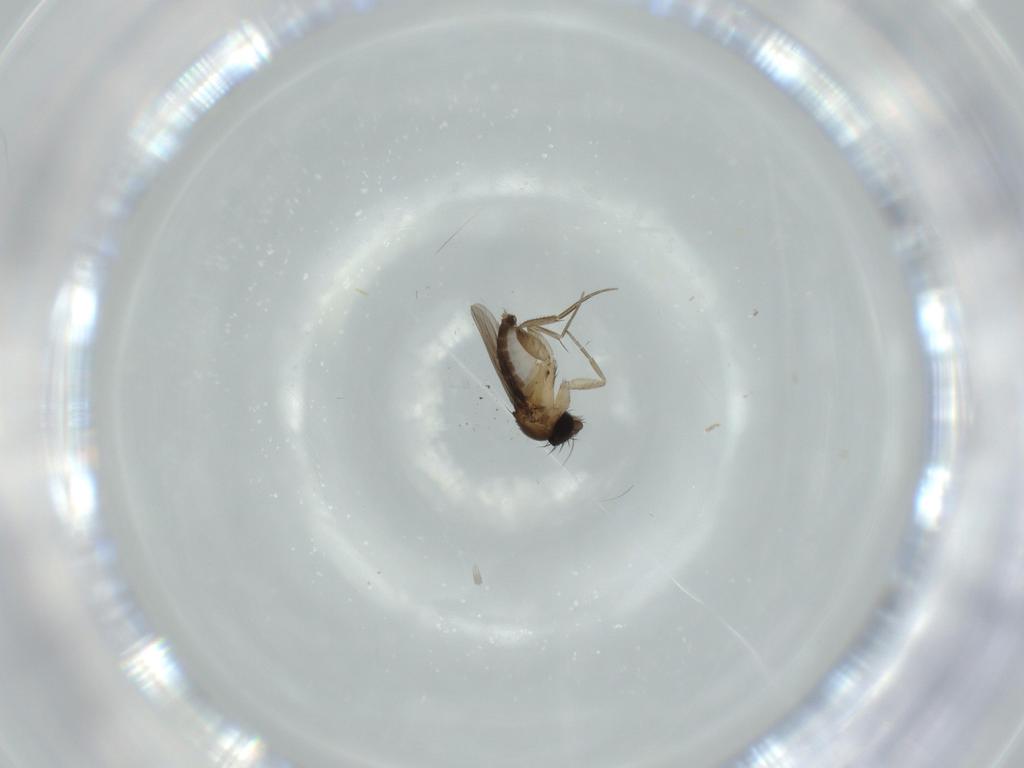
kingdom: Animalia
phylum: Arthropoda
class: Insecta
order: Diptera
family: Phoridae
